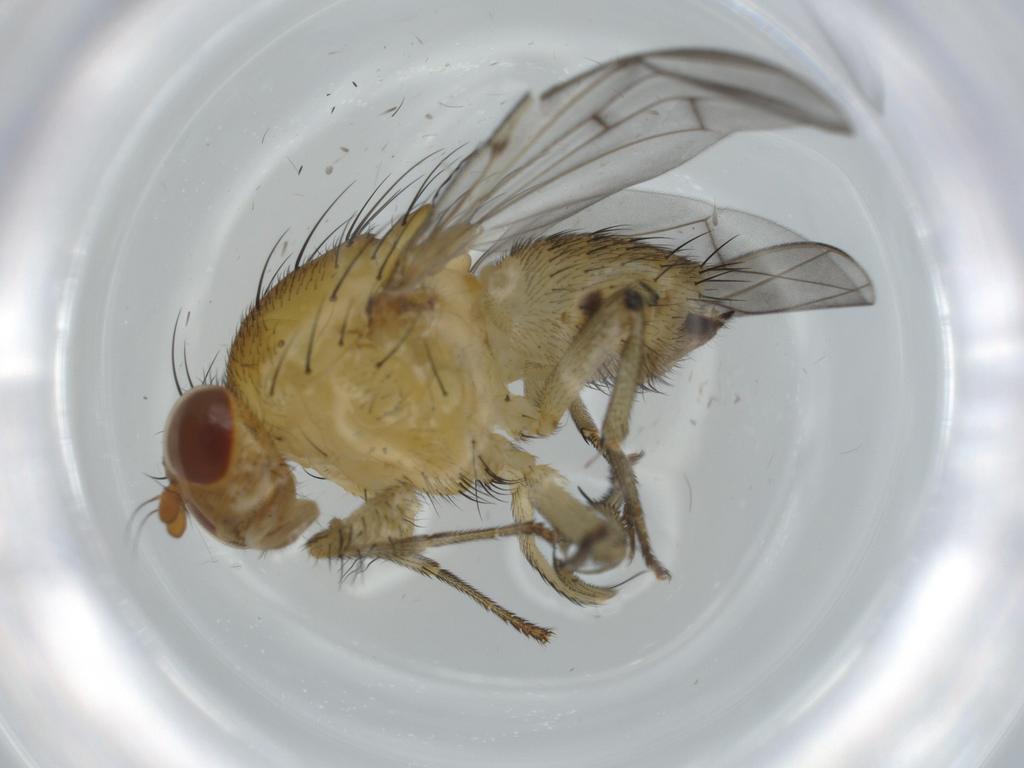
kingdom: Animalia
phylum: Arthropoda
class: Insecta
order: Diptera
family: Lauxaniidae
